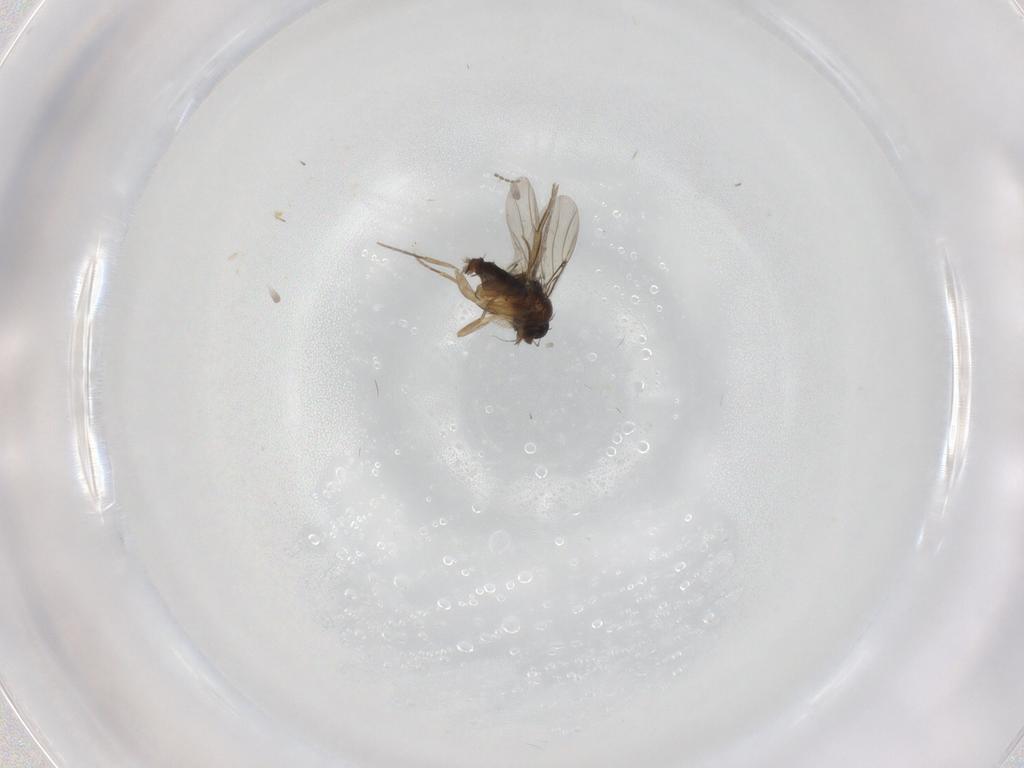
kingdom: Animalia
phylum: Arthropoda
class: Insecta
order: Diptera
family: Phoridae
